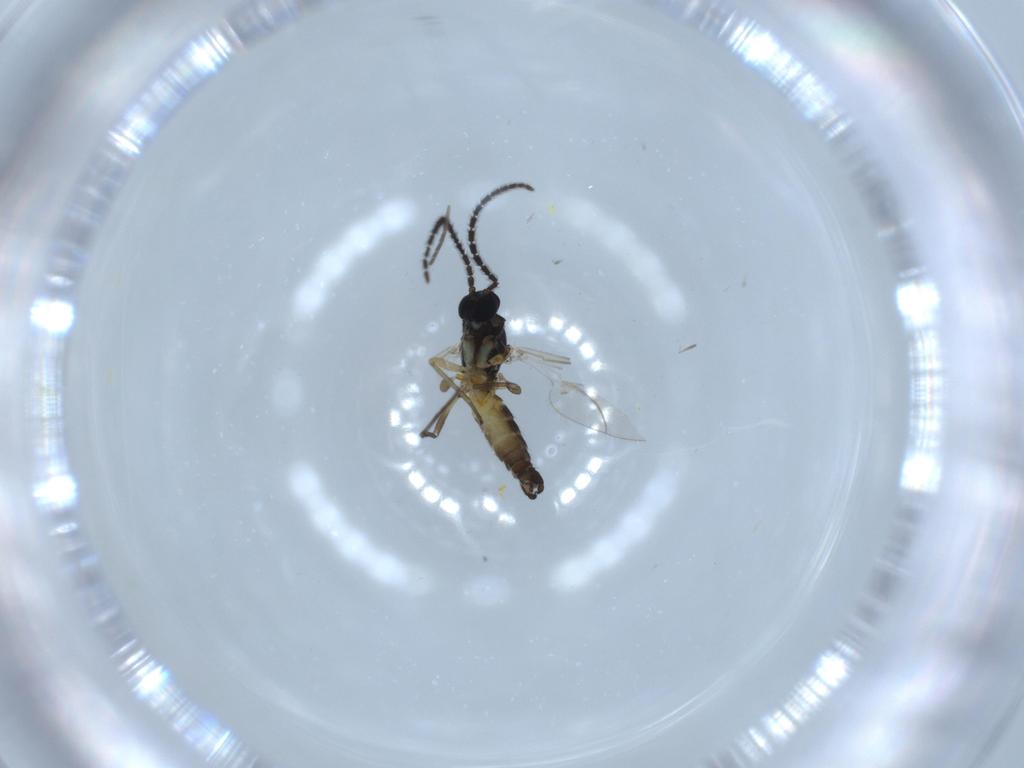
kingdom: Animalia
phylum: Arthropoda
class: Insecta
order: Diptera
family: Sciaridae
